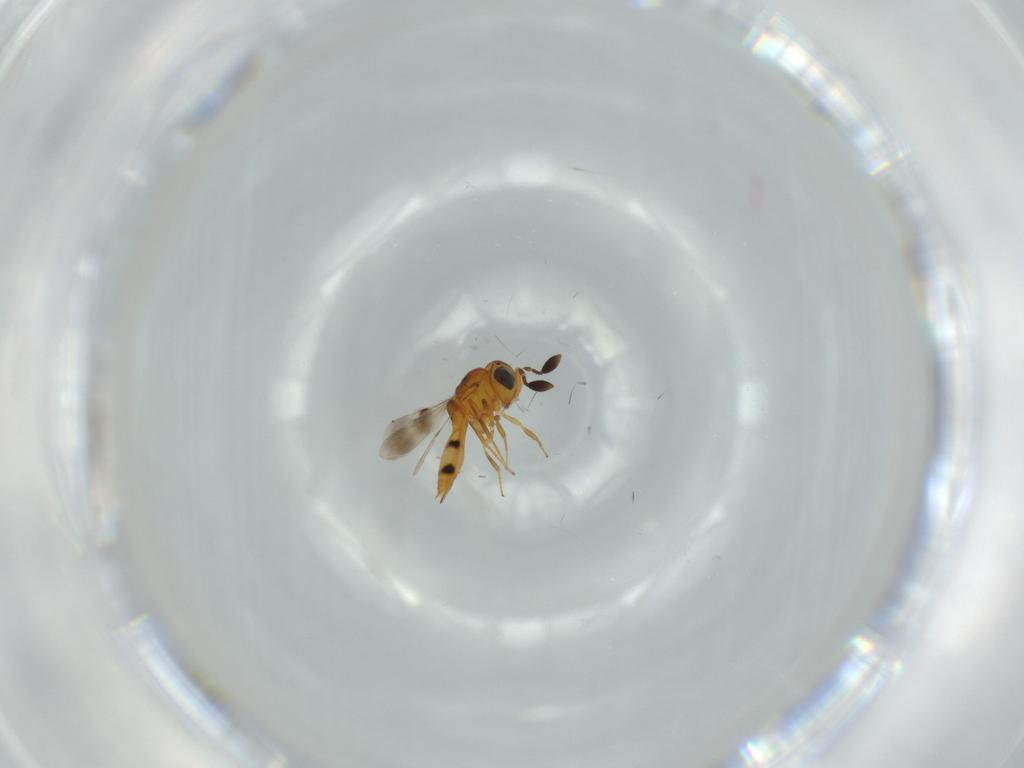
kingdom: Animalia
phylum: Arthropoda
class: Insecta
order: Hymenoptera
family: Scelionidae
